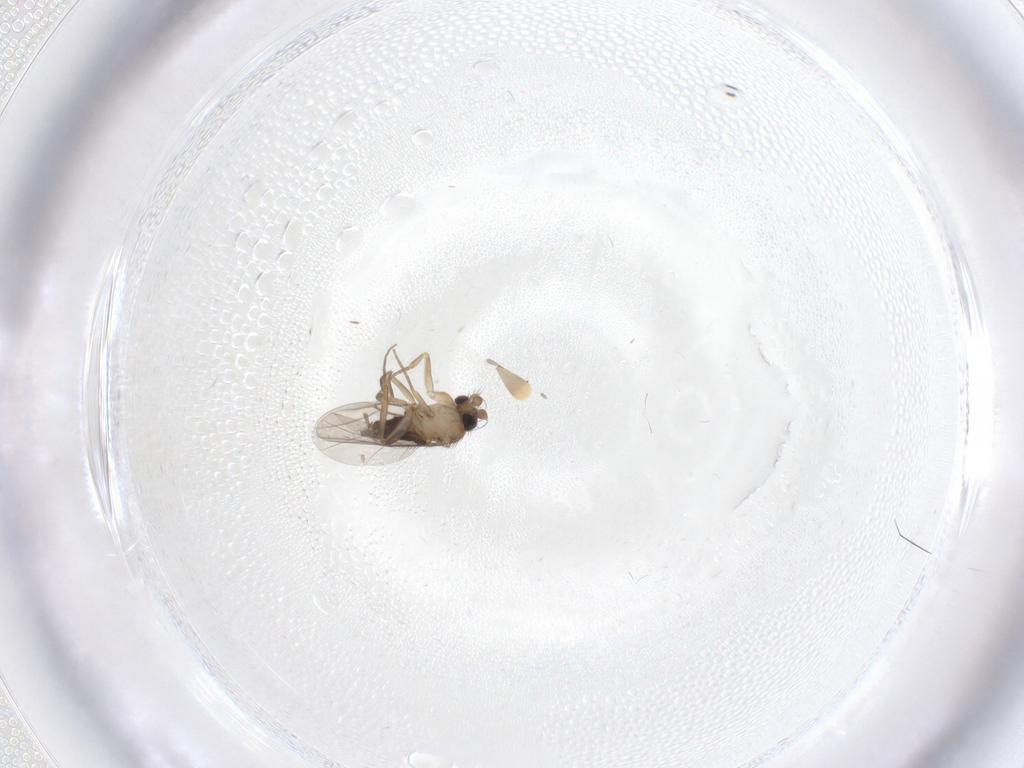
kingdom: Animalia
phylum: Arthropoda
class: Insecta
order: Diptera
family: Phoridae
